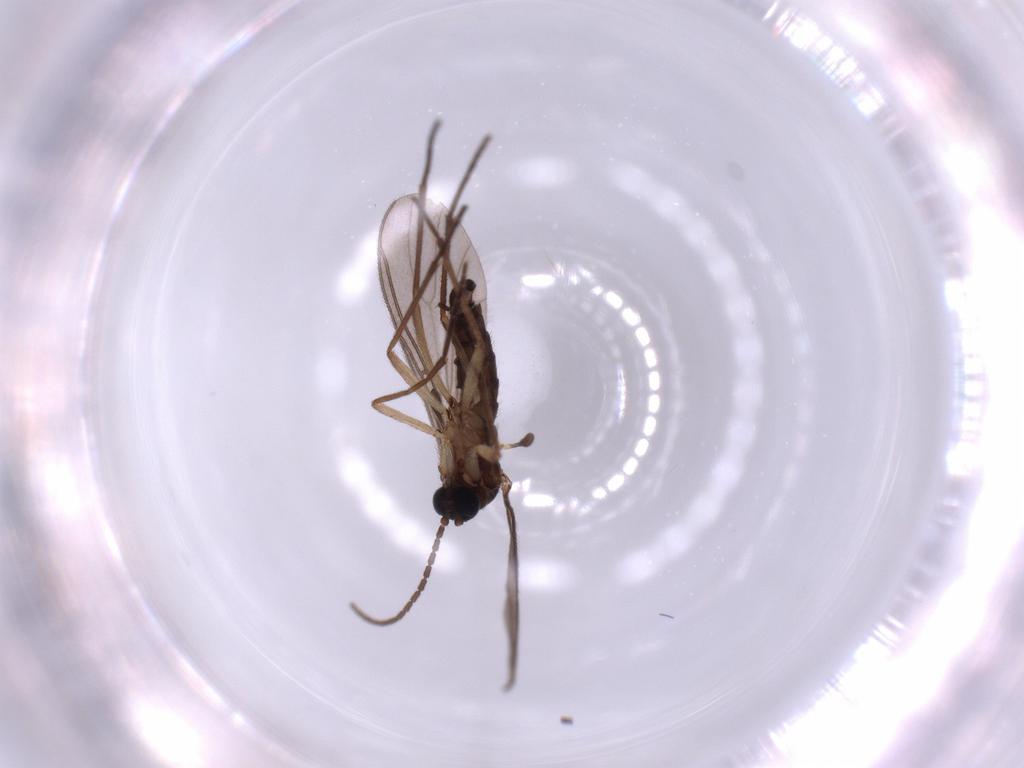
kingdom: Animalia
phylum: Arthropoda
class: Insecta
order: Diptera
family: Sciaridae
